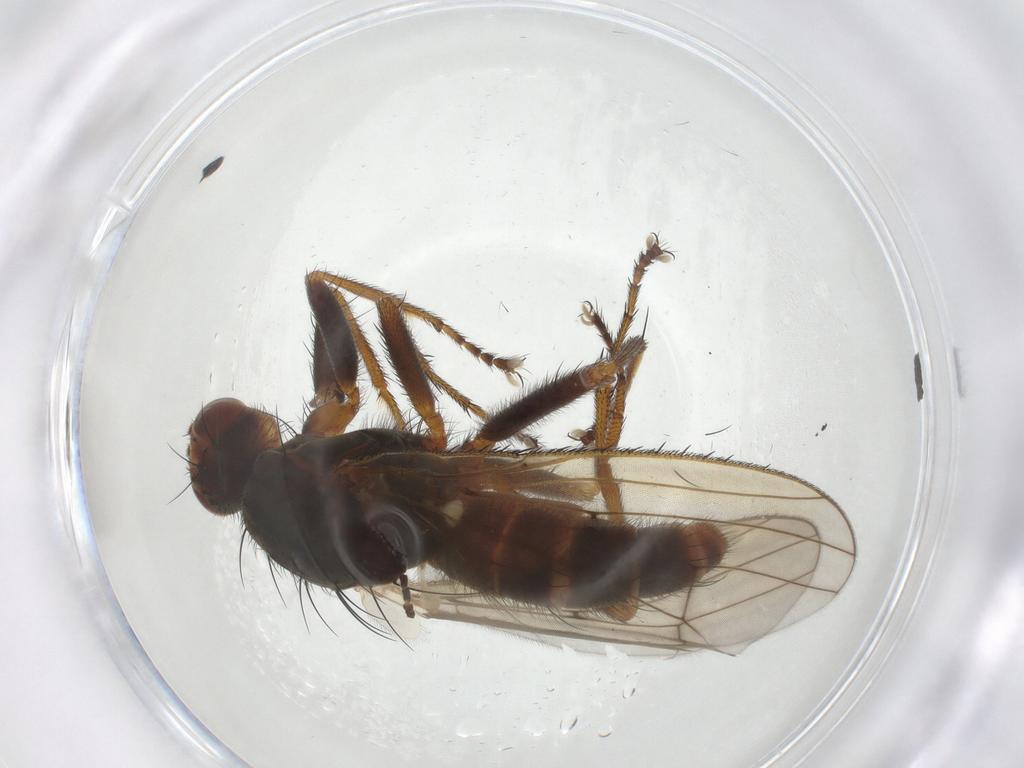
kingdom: Animalia
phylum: Arthropoda
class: Insecta
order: Diptera
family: Heleomyzidae
